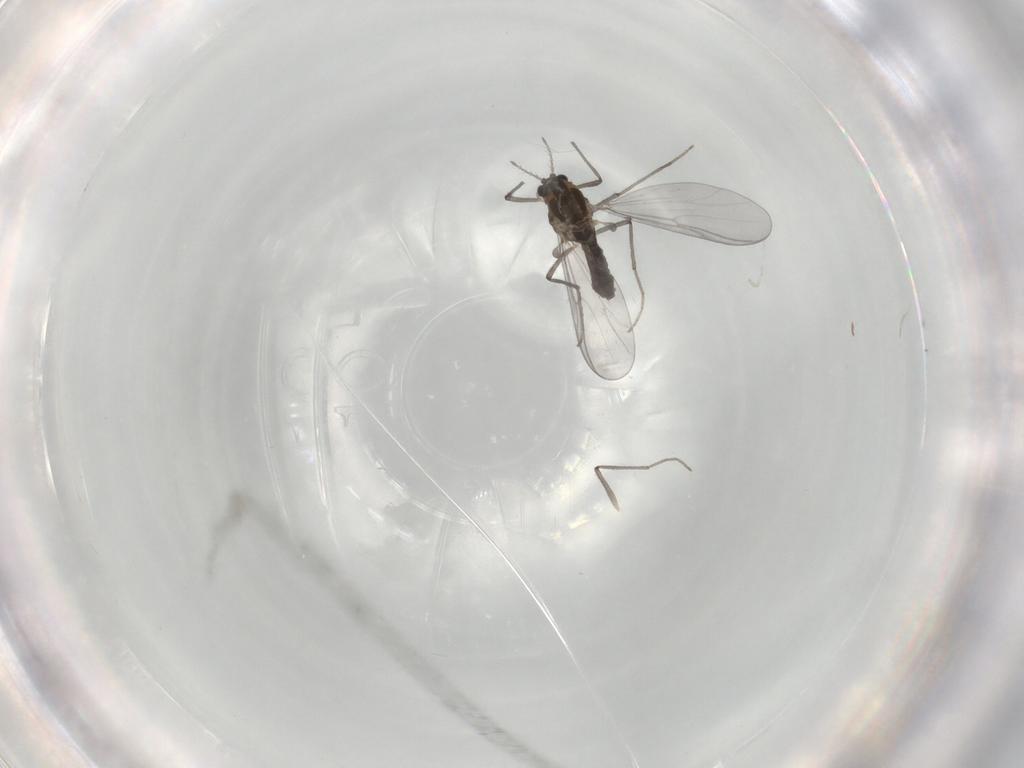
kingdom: Animalia
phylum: Arthropoda
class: Insecta
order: Diptera
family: Chironomidae
